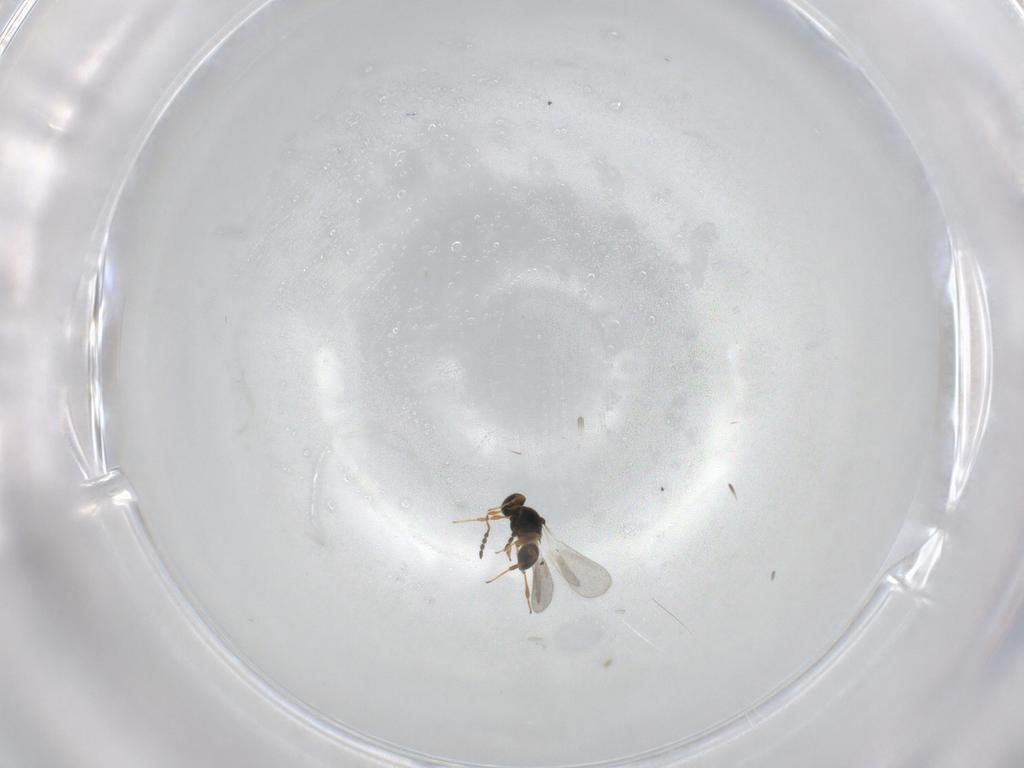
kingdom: Animalia
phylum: Arthropoda
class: Insecta
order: Hymenoptera
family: Platygastridae
